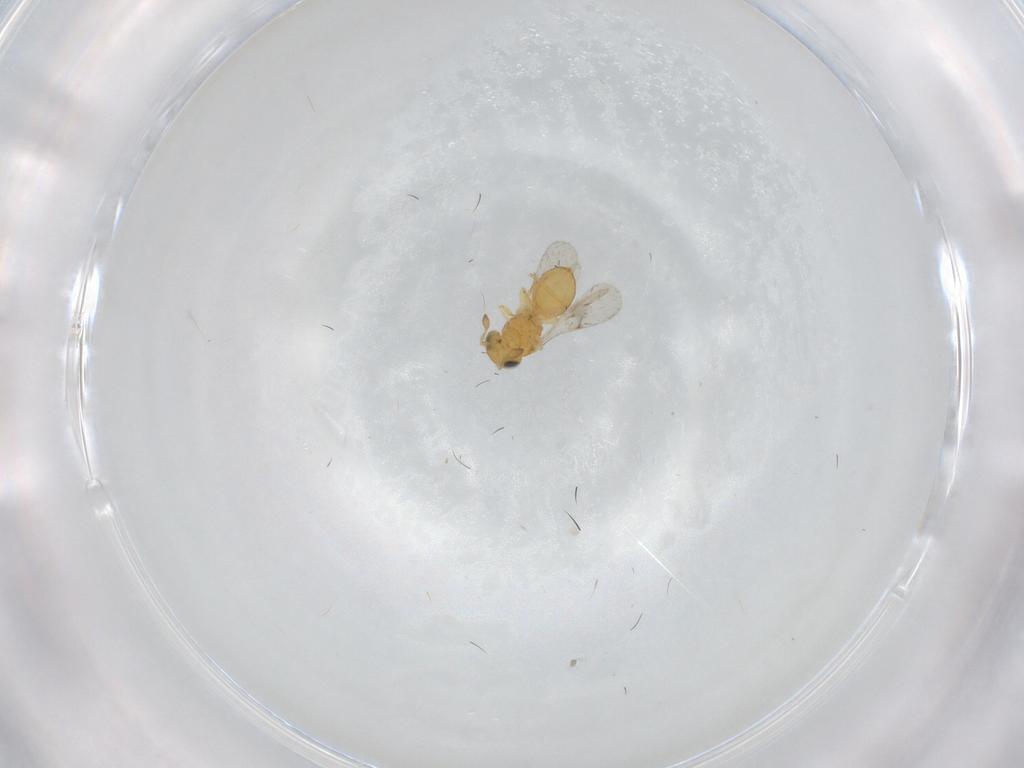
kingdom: Animalia
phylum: Arthropoda
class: Insecta
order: Hymenoptera
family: Scelionidae
